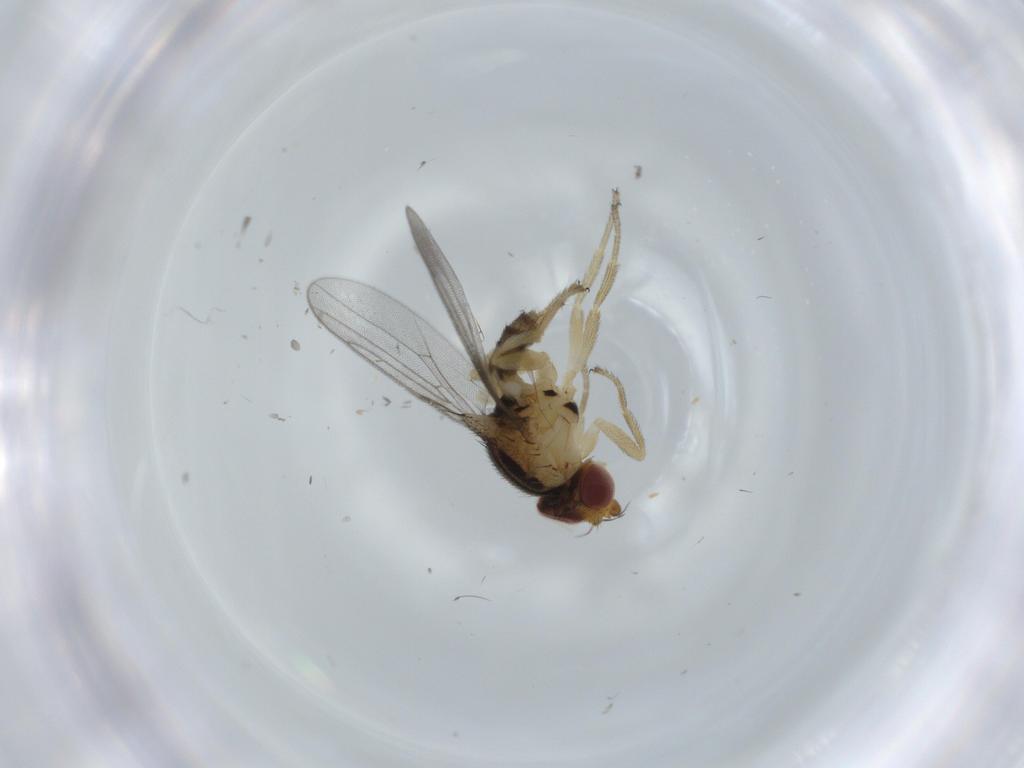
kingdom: Animalia
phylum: Arthropoda
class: Insecta
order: Diptera
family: Chloropidae
